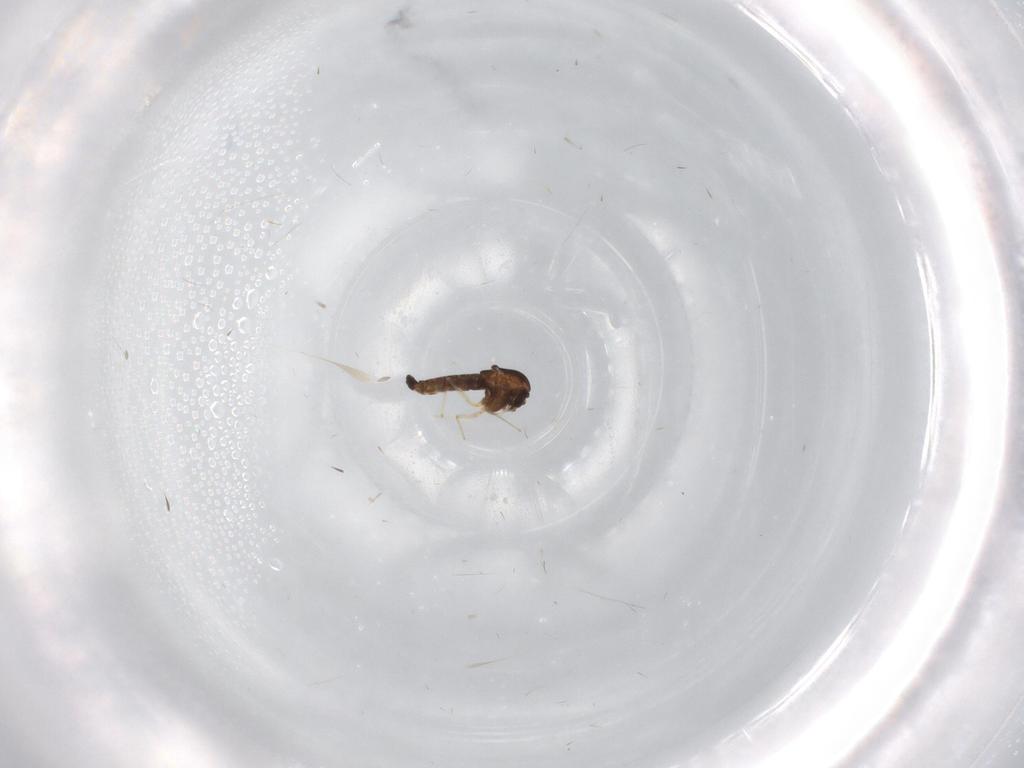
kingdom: Animalia
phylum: Arthropoda
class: Insecta
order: Diptera
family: Chironomidae
